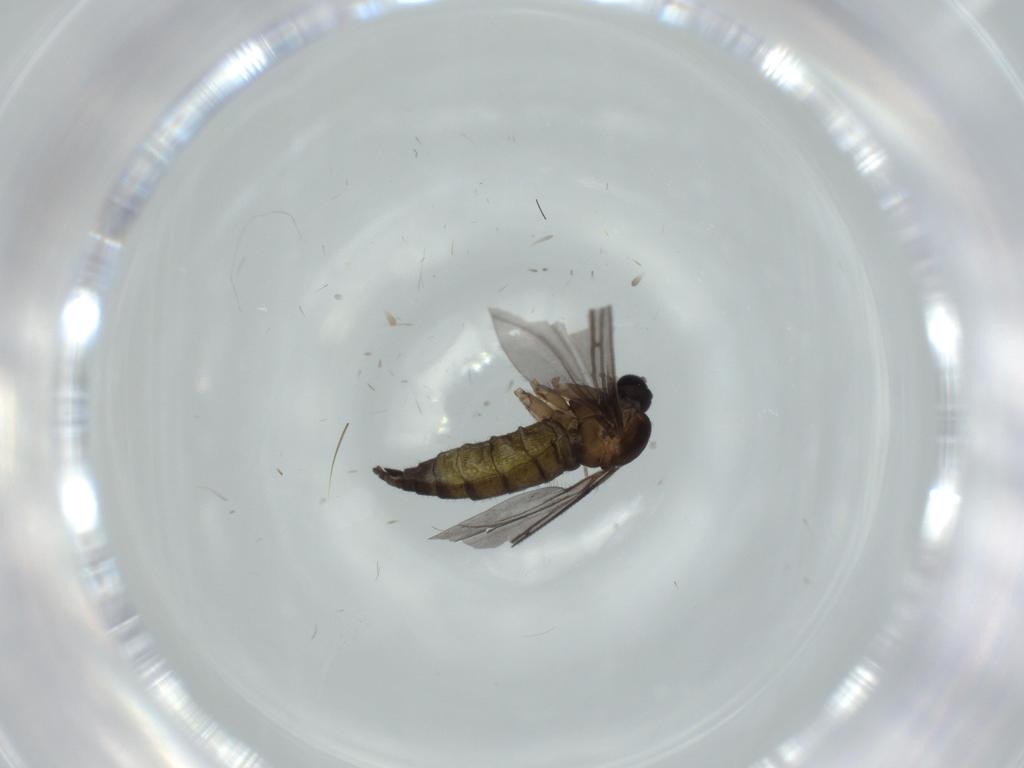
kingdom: Animalia
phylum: Arthropoda
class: Insecta
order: Diptera
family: Sciaridae
